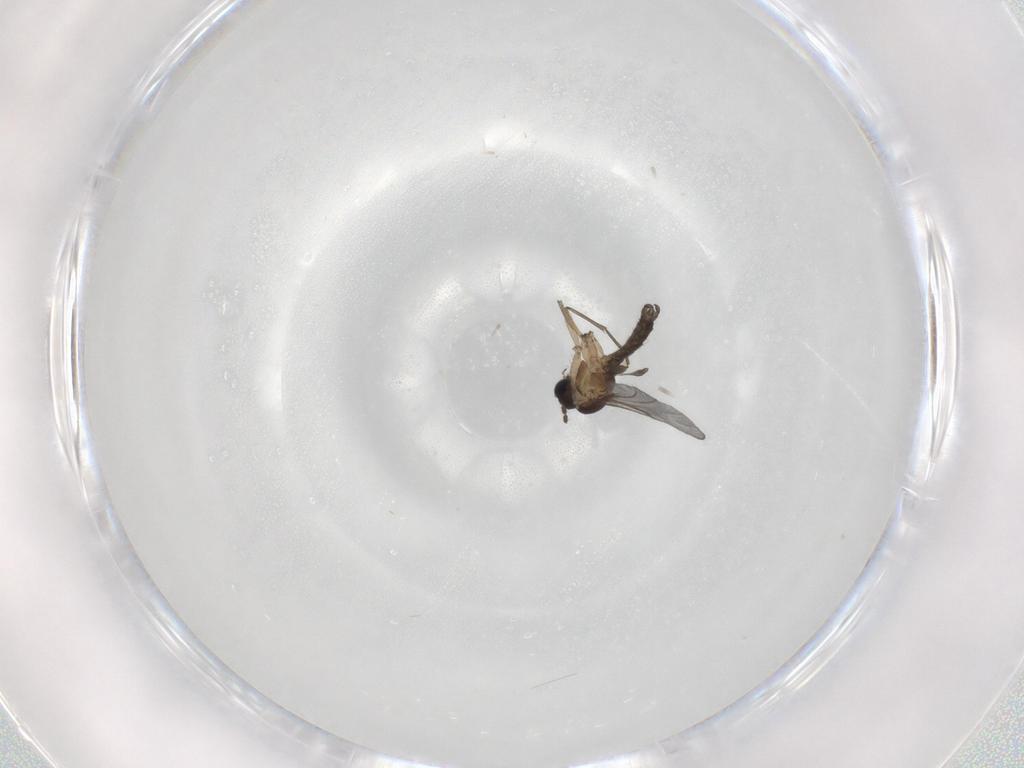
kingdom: Animalia
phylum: Arthropoda
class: Insecta
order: Diptera
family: Sciaridae
